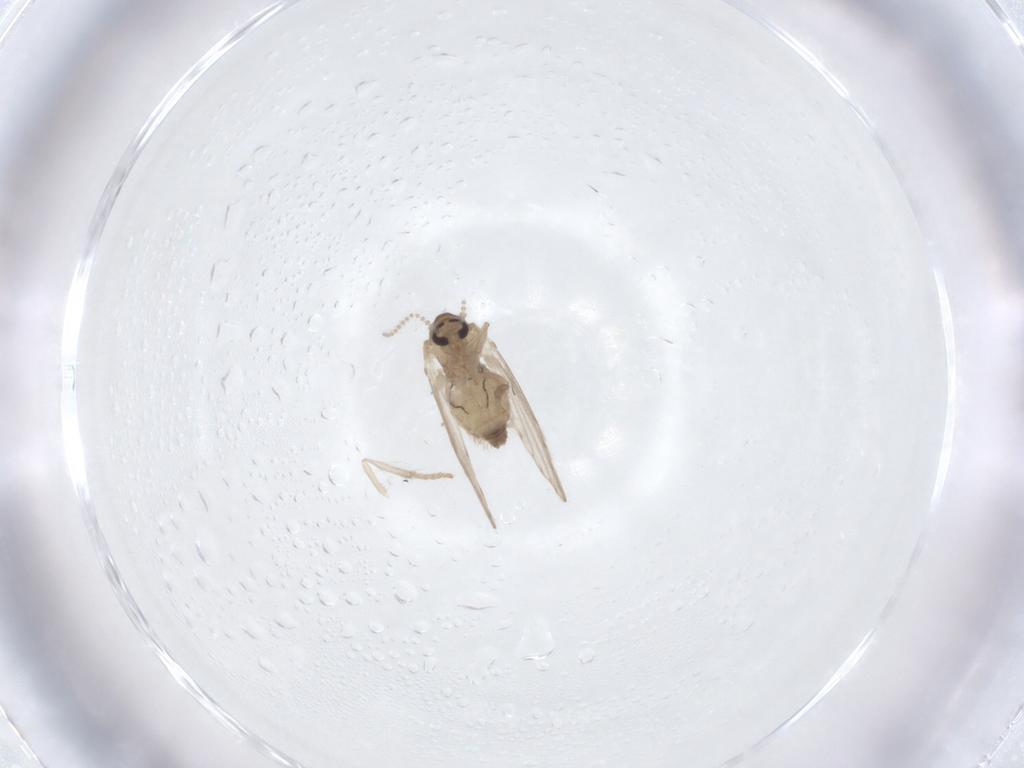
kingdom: Animalia
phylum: Arthropoda
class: Insecta
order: Diptera
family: Psychodidae
